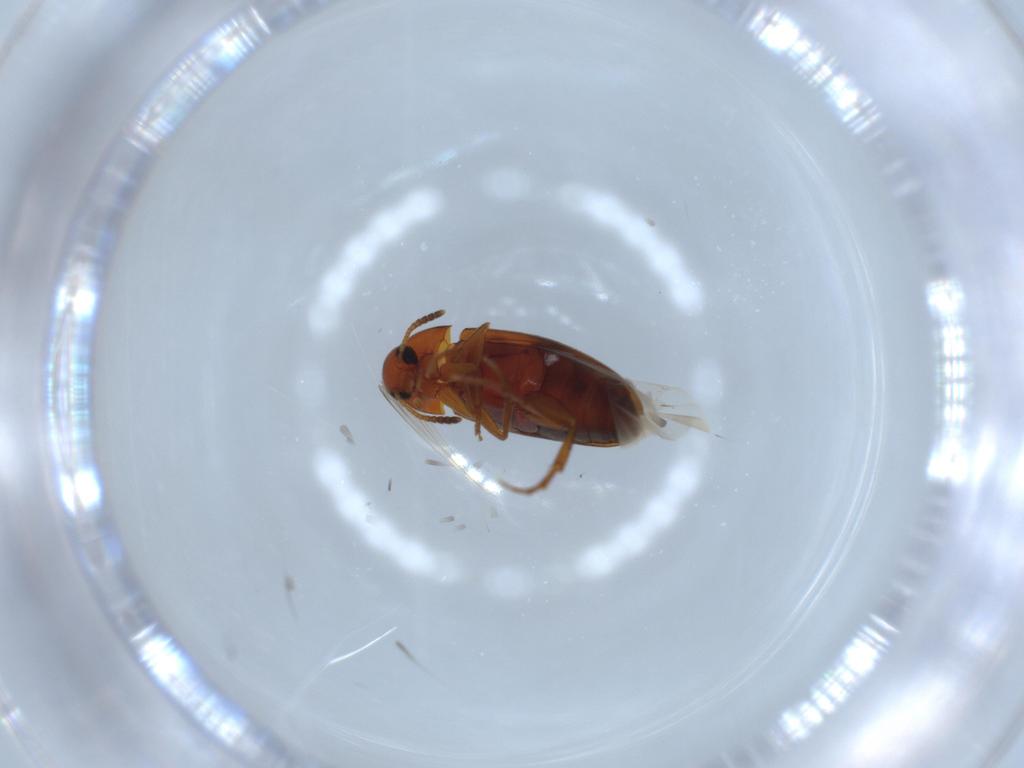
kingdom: Animalia
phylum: Arthropoda
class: Insecta
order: Coleoptera
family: Scraptiidae
